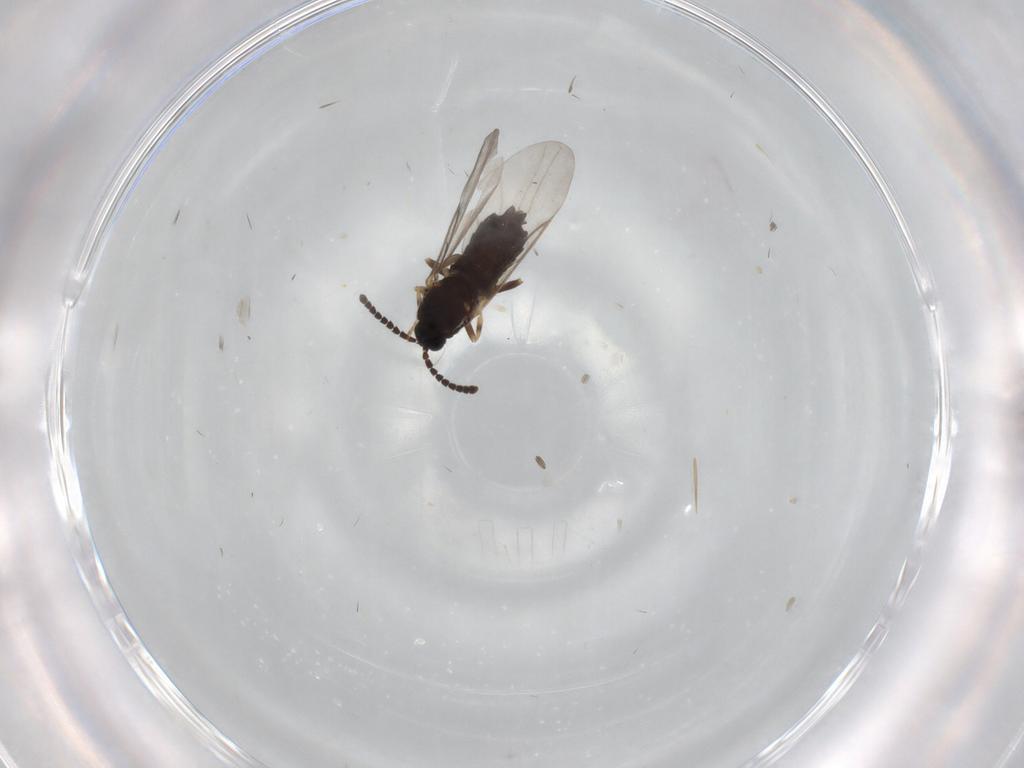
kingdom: Animalia
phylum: Arthropoda
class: Insecta
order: Diptera
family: Scatopsidae
